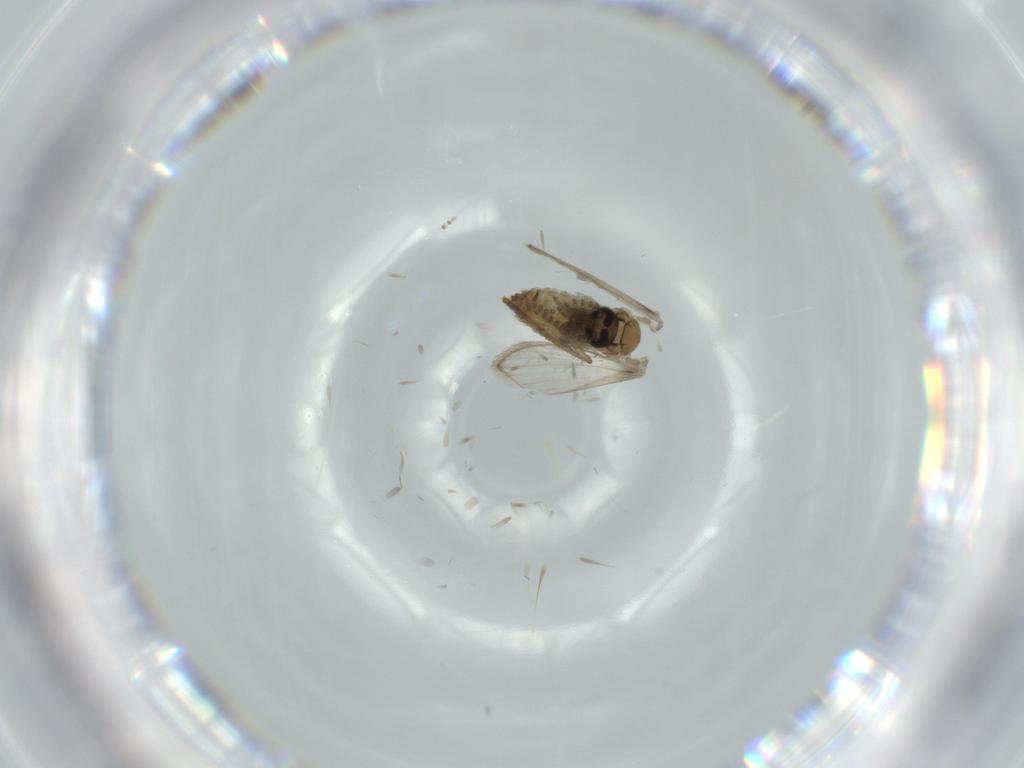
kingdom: Animalia
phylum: Arthropoda
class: Insecta
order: Diptera
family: Psychodidae
